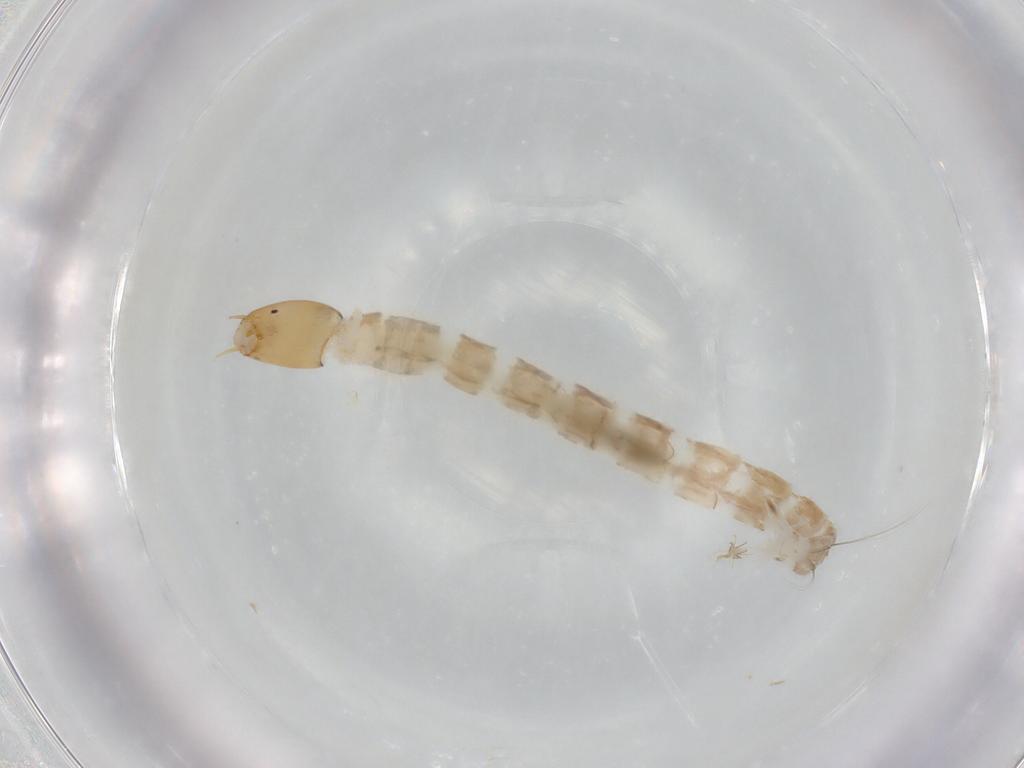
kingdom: Animalia
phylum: Arthropoda
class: Insecta
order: Diptera
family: Chironomidae
